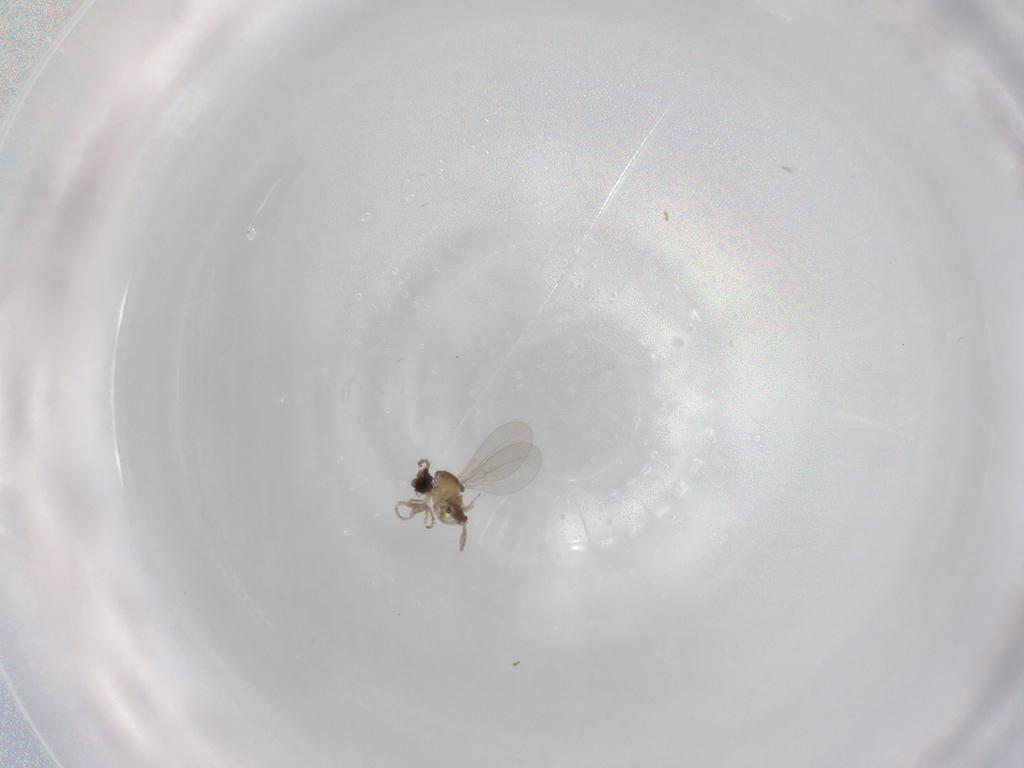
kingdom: Animalia
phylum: Arthropoda
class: Insecta
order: Diptera
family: Cecidomyiidae
